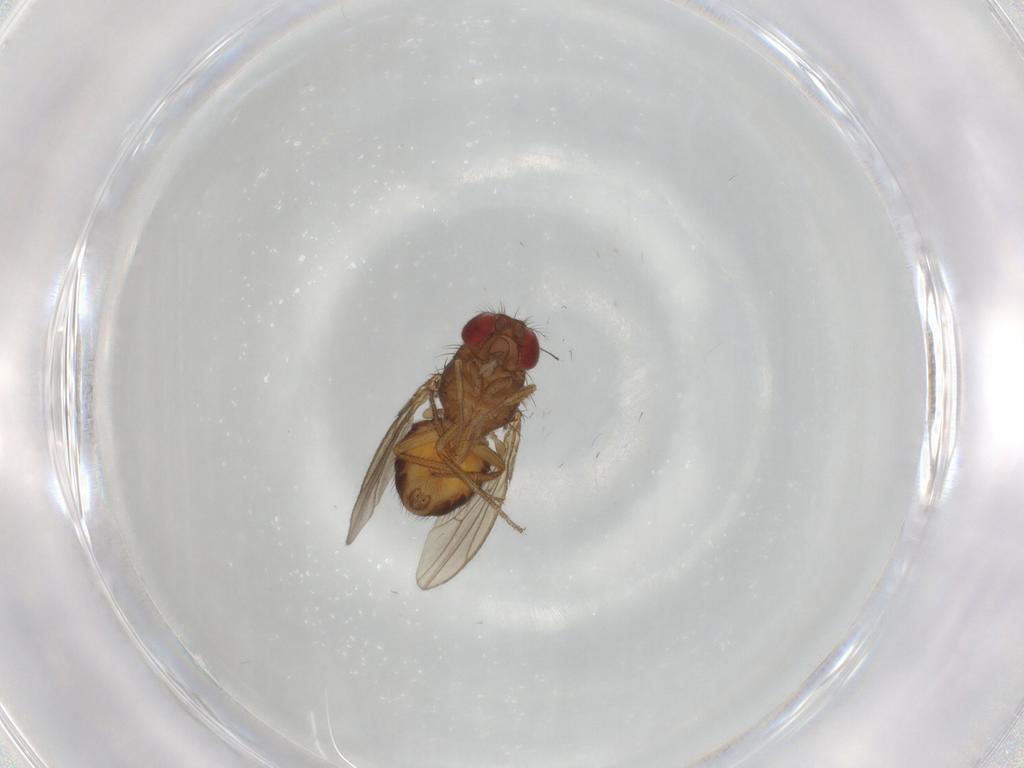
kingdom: Animalia
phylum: Arthropoda
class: Insecta
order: Diptera
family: Drosophilidae
